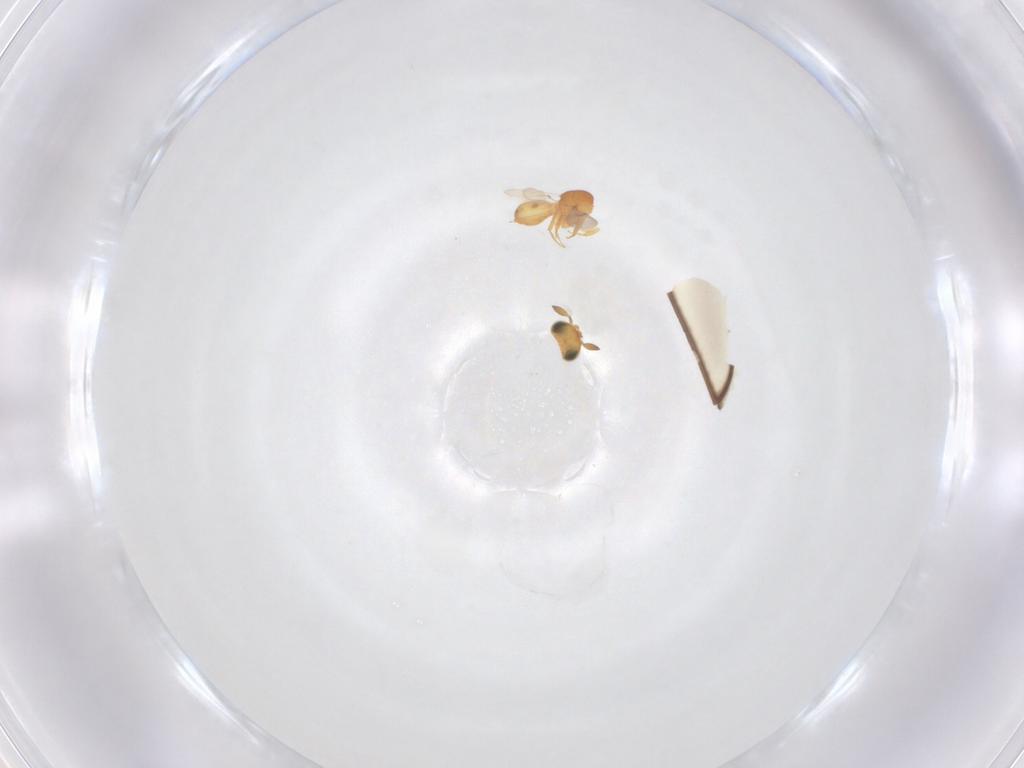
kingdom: Animalia
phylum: Arthropoda
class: Insecta
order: Hymenoptera
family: Scelionidae
